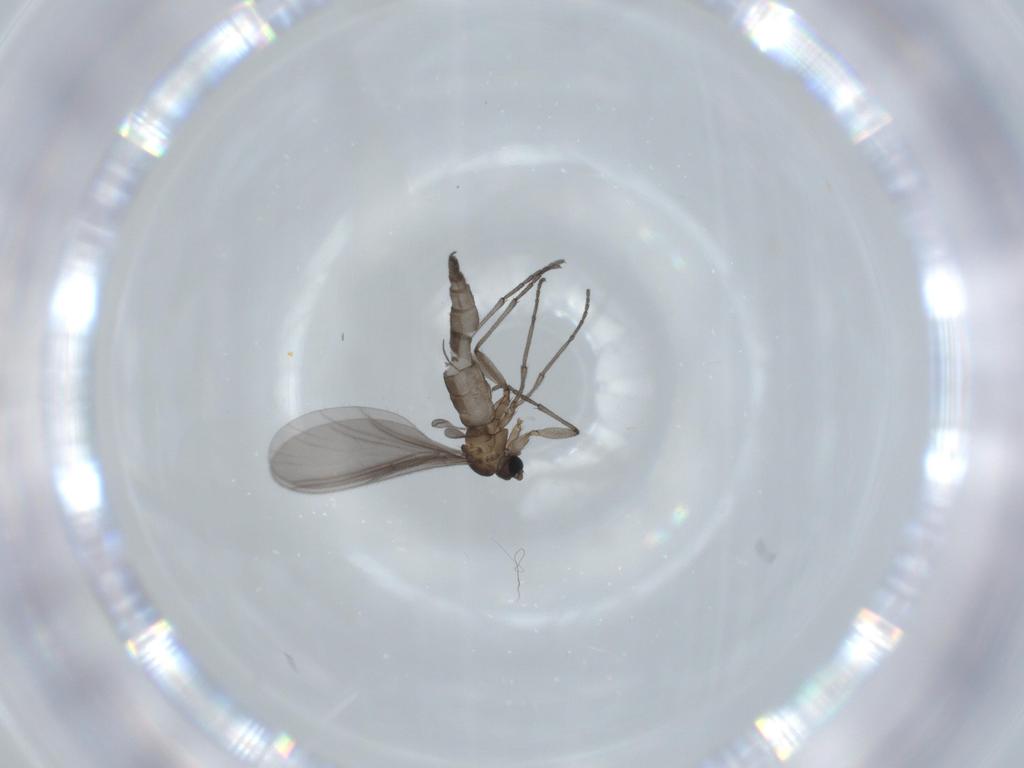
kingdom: Animalia
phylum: Arthropoda
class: Insecta
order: Diptera
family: Sciaridae
